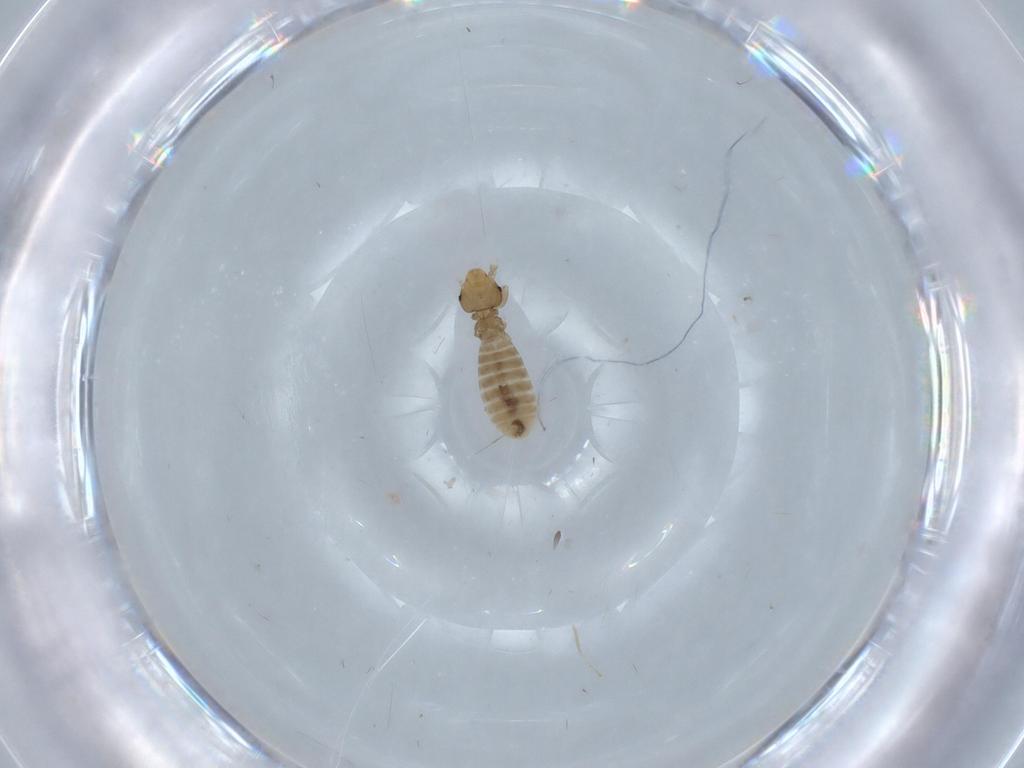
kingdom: Animalia
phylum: Arthropoda
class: Insecta
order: Psocodea
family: Liposcelididae
